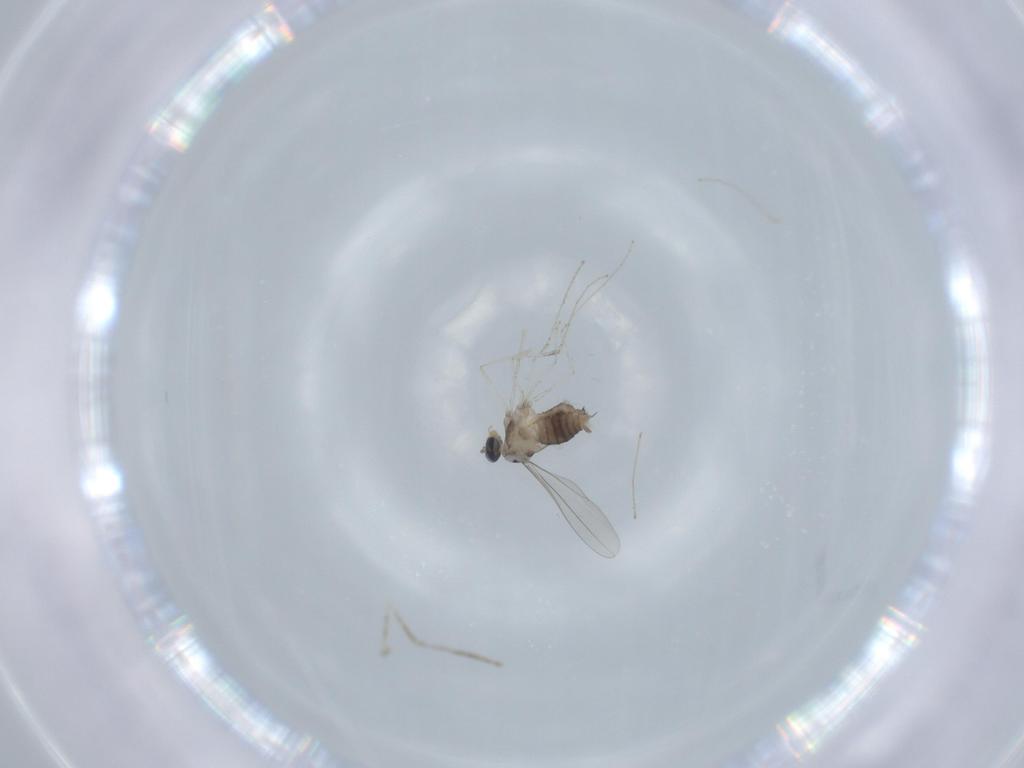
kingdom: Animalia
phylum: Arthropoda
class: Insecta
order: Diptera
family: Cecidomyiidae
